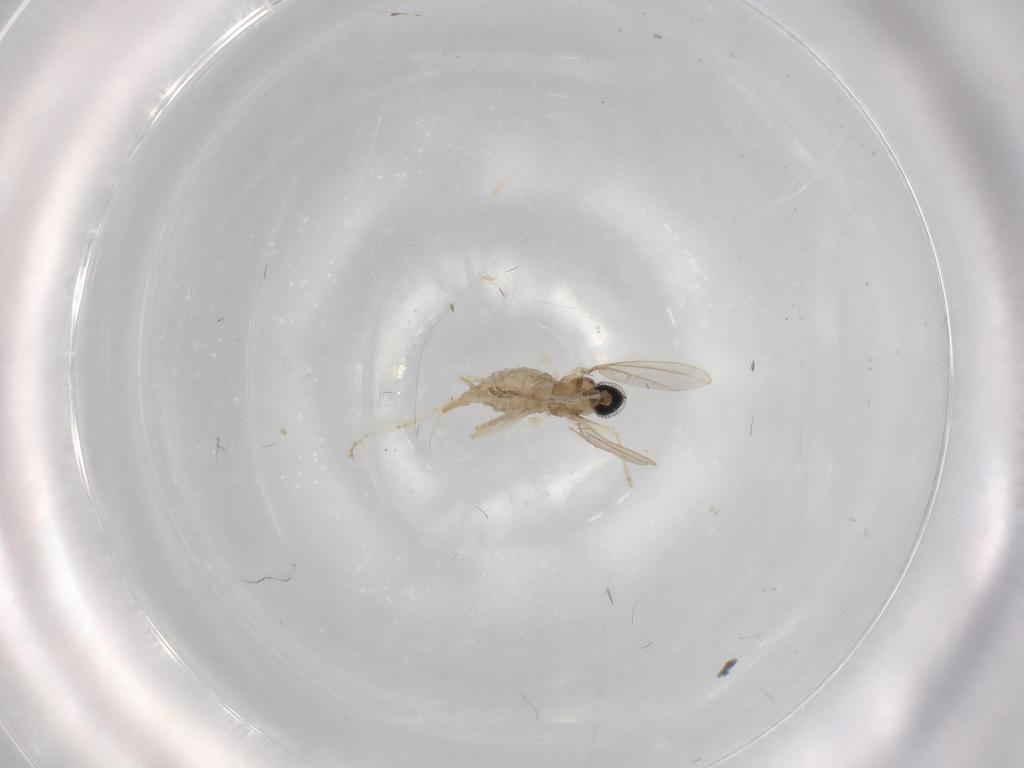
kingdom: Animalia
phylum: Arthropoda
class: Insecta
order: Diptera
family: Cecidomyiidae
